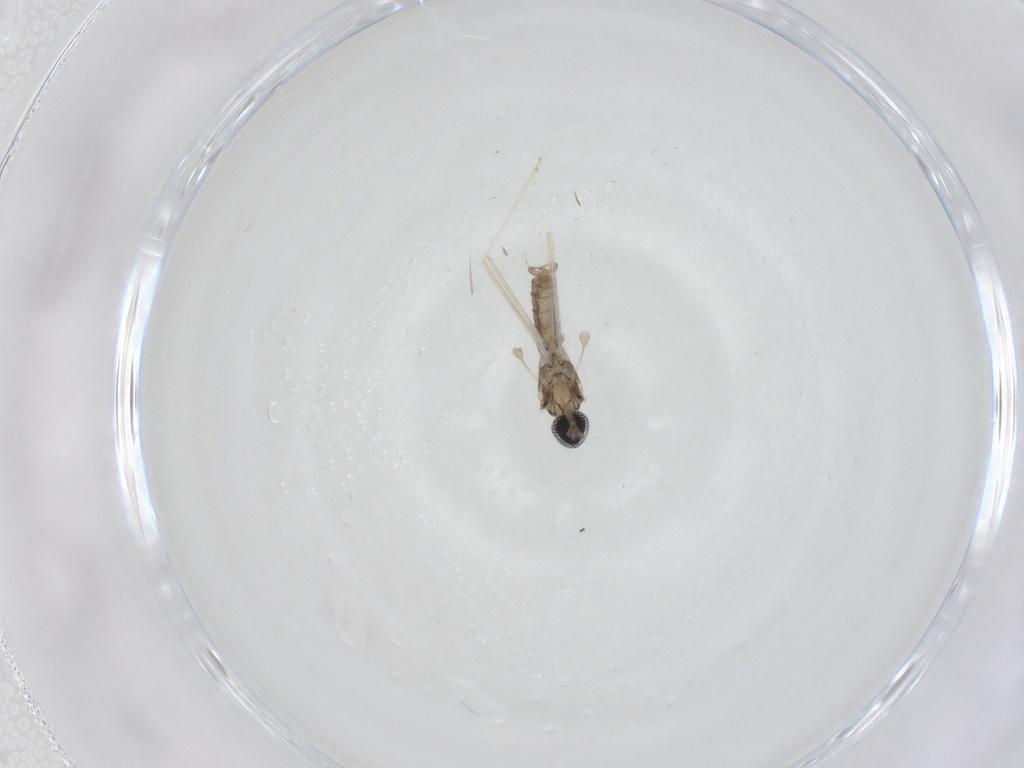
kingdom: Animalia
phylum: Arthropoda
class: Insecta
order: Diptera
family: Cecidomyiidae
